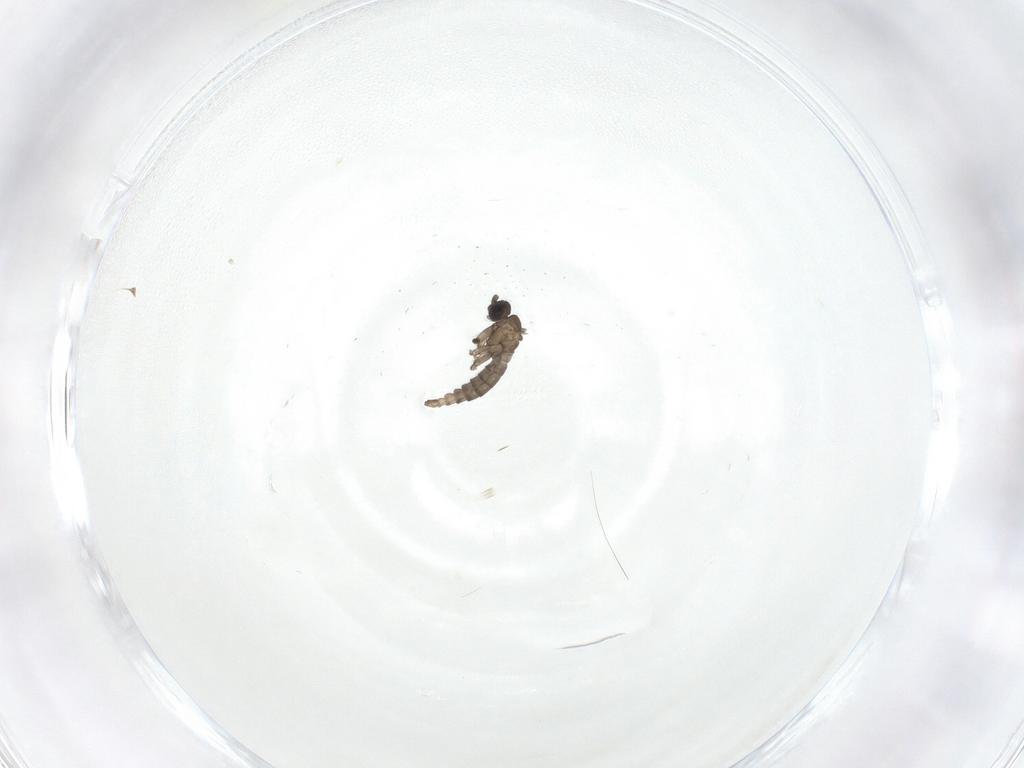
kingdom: Animalia
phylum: Arthropoda
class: Insecta
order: Diptera
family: Sciaridae
